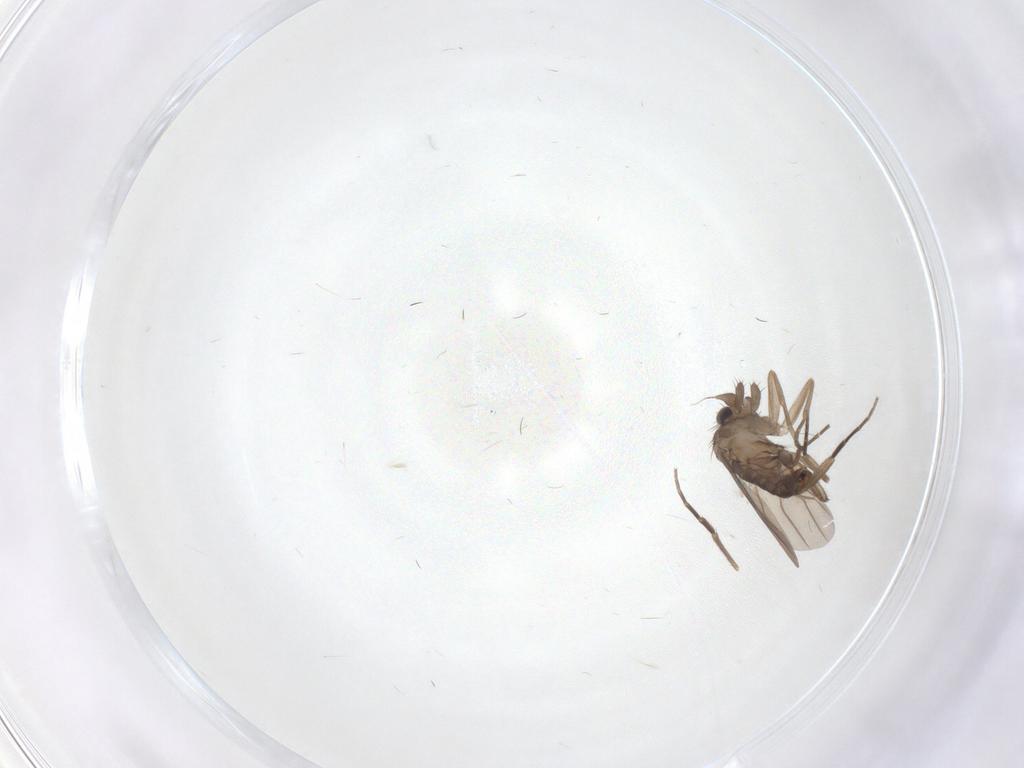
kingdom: Animalia
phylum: Arthropoda
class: Insecta
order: Diptera
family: Phoridae
